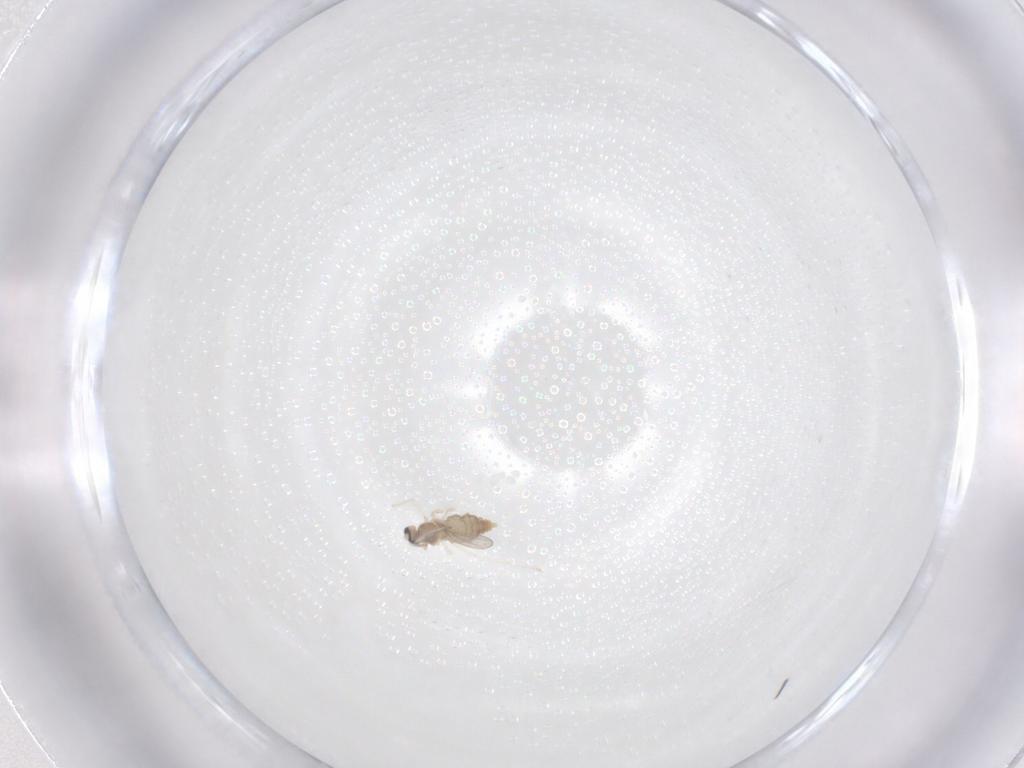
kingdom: Animalia
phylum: Arthropoda
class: Insecta
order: Diptera
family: Cecidomyiidae
